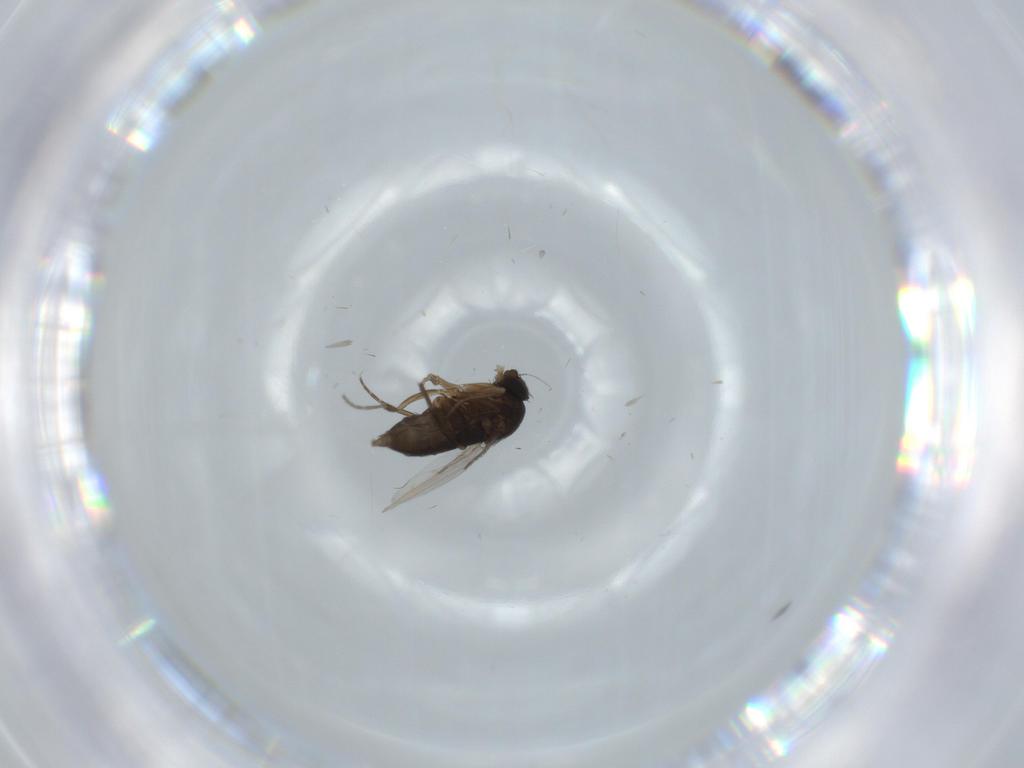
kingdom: Animalia
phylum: Arthropoda
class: Insecta
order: Diptera
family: Phoridae
